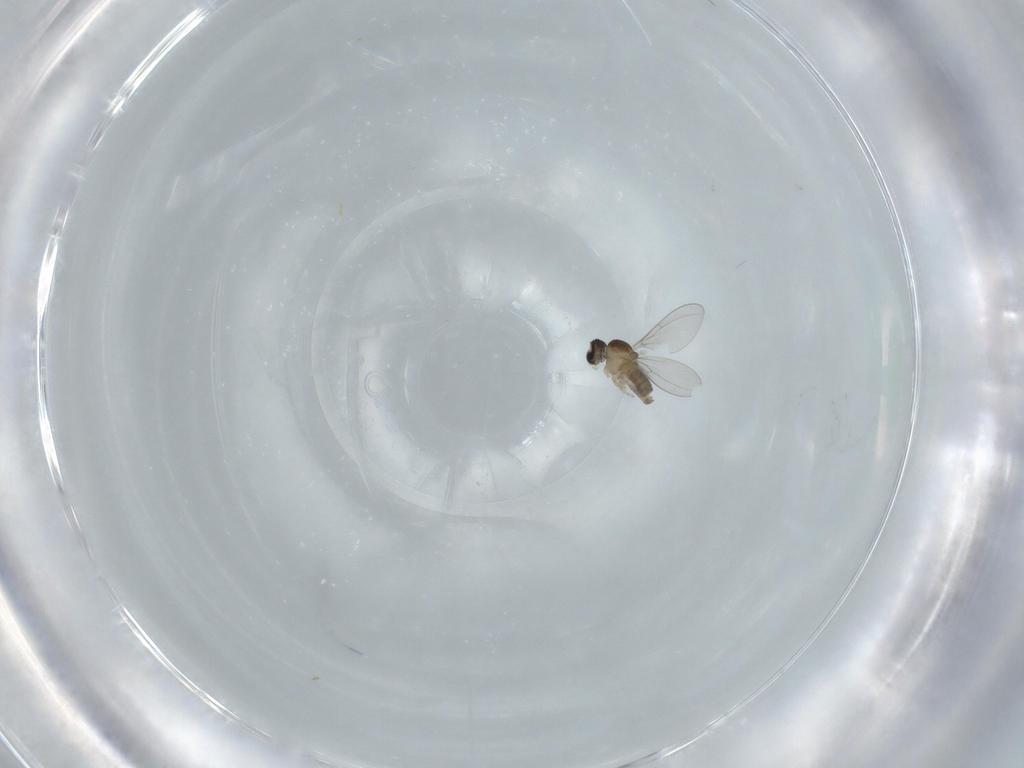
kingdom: Animalia
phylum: Arthropoda
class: Insecta
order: Diptera
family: Cecidomyiidae
